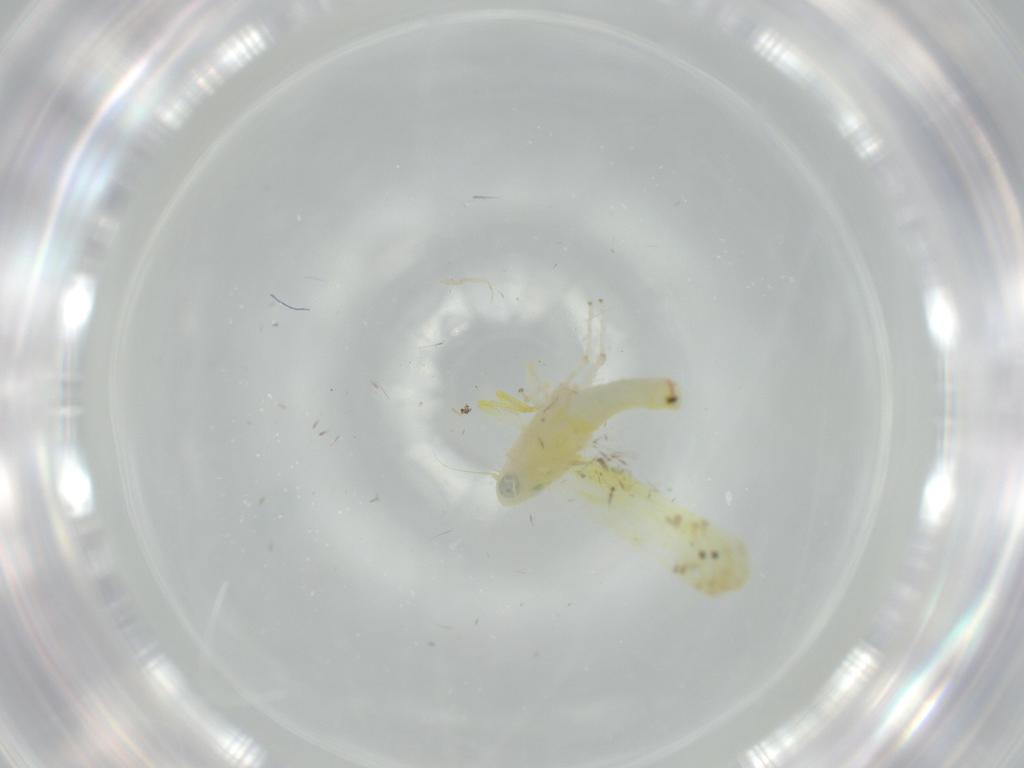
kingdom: Animalia
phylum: Arthropoda
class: Insecta
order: Hemiptera
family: Cicadellidae
